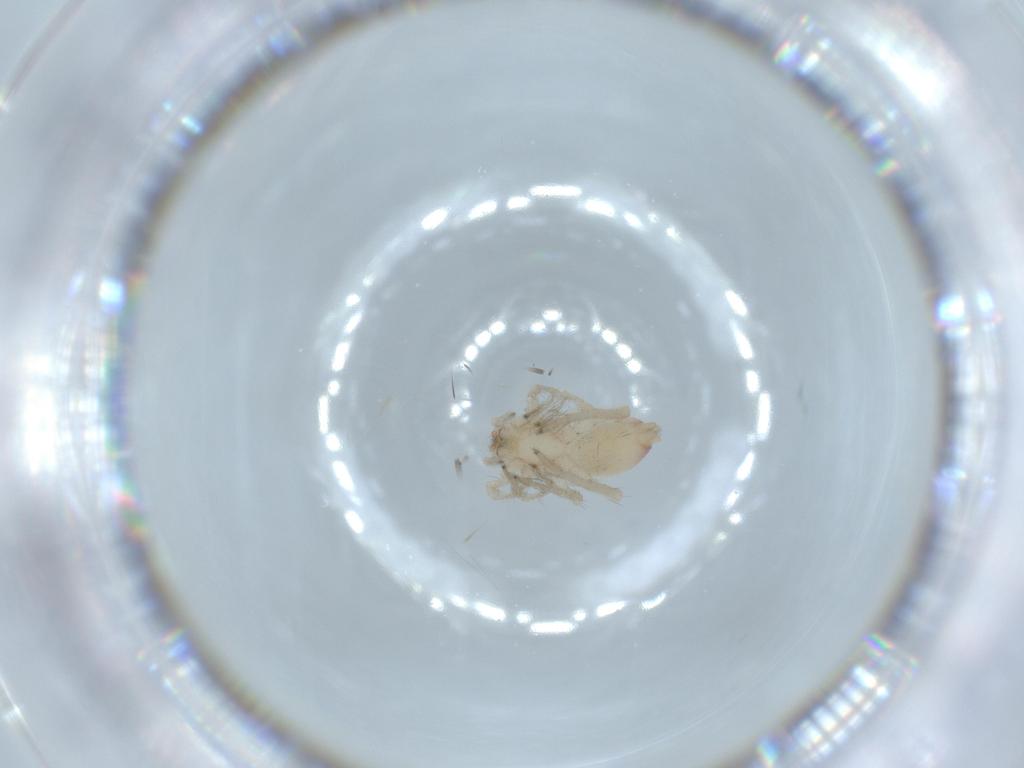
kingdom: Animalia
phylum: Arthropoda
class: Arachnida
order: Araneae
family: Clubionidae
